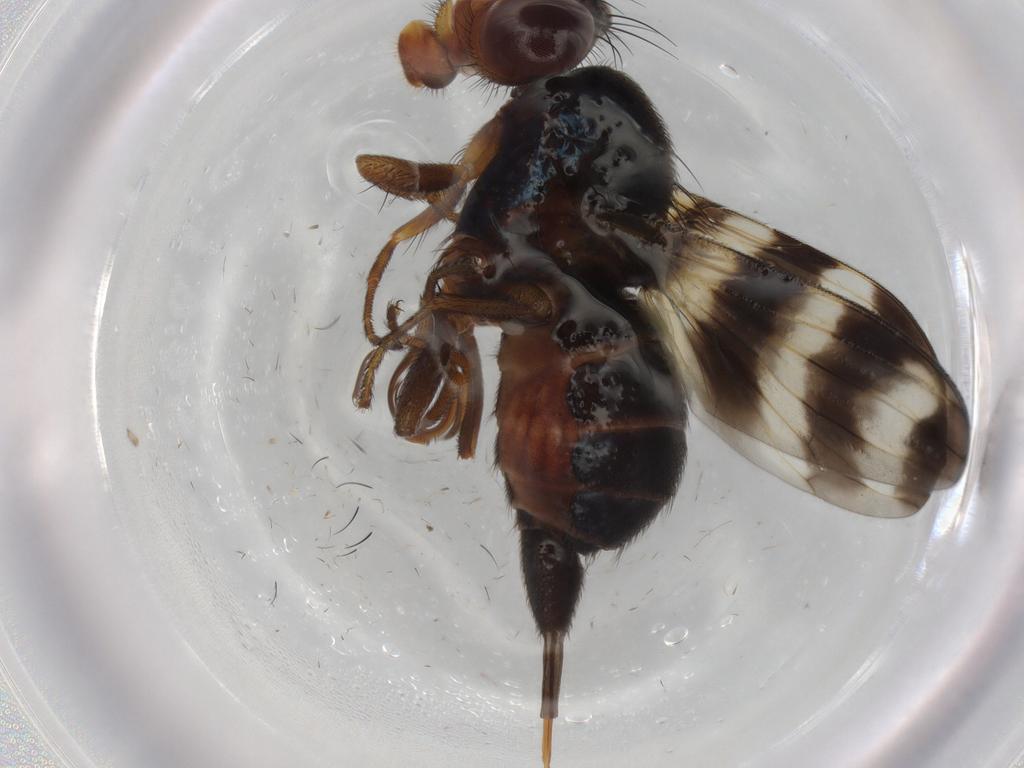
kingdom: Animalia
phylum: Arthropoda
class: Insecta
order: Diptera
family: Ulidiidae
